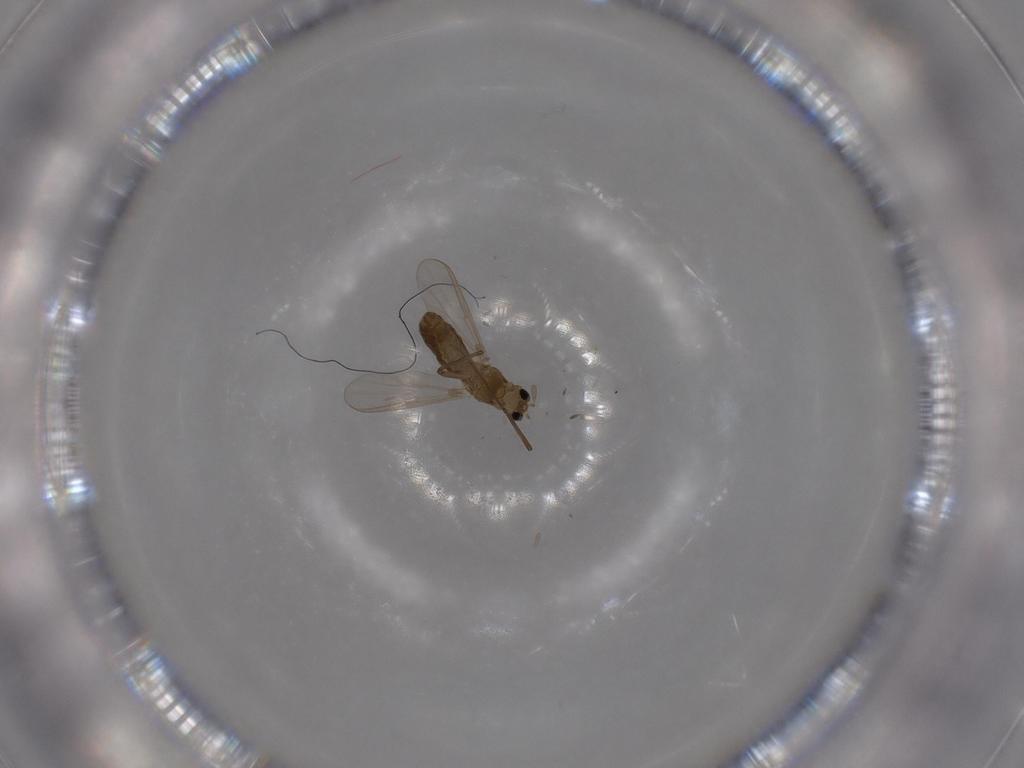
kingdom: Animalia
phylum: Arthropoda
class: Insecta
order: Diptera
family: Chironomidae
